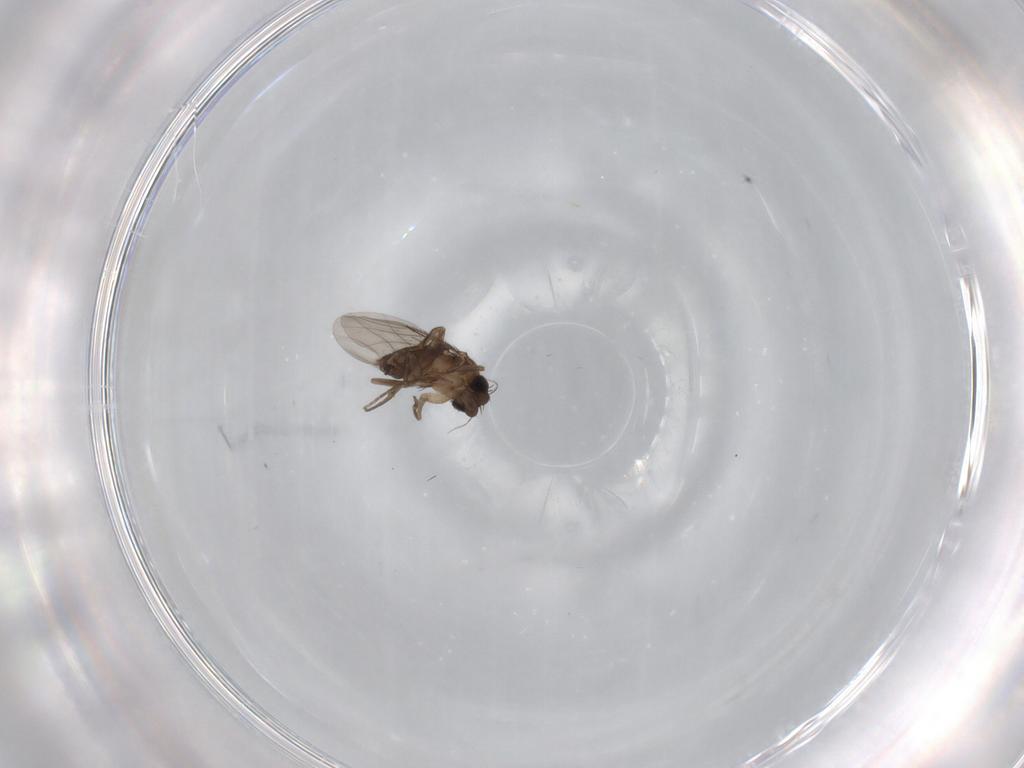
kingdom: Animalia
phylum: Arthropoda
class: Insecta
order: Diptera
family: Phoridae
